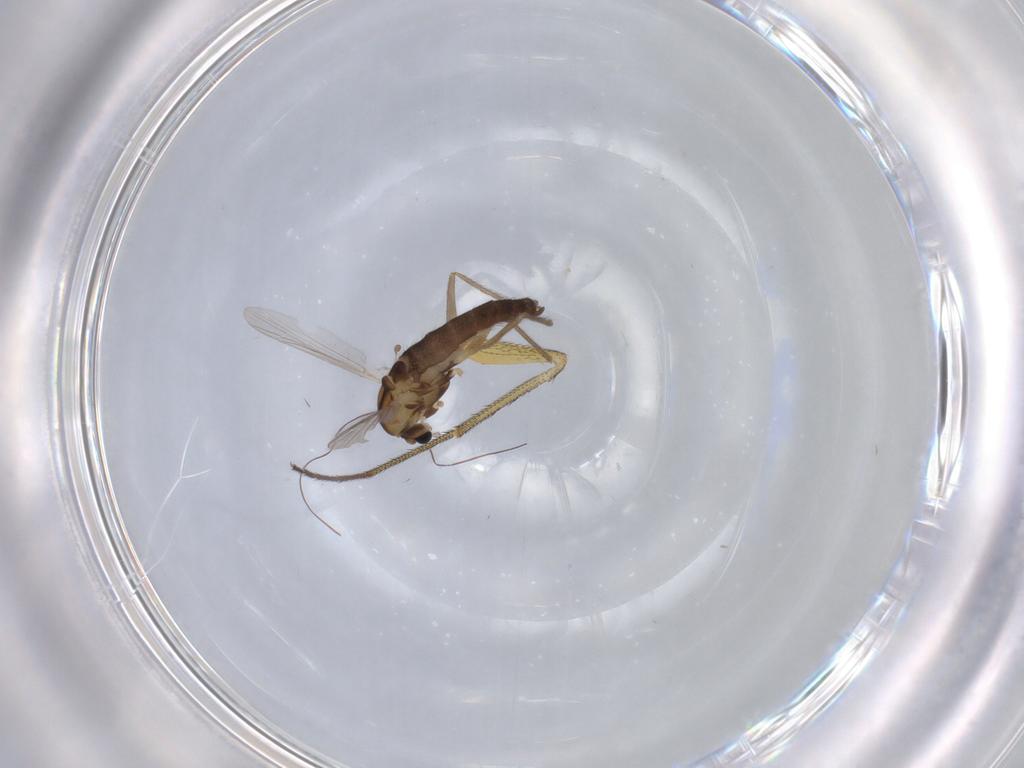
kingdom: Animalia
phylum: Arthropoda
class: Insecta
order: Diptera
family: Chironomidae
